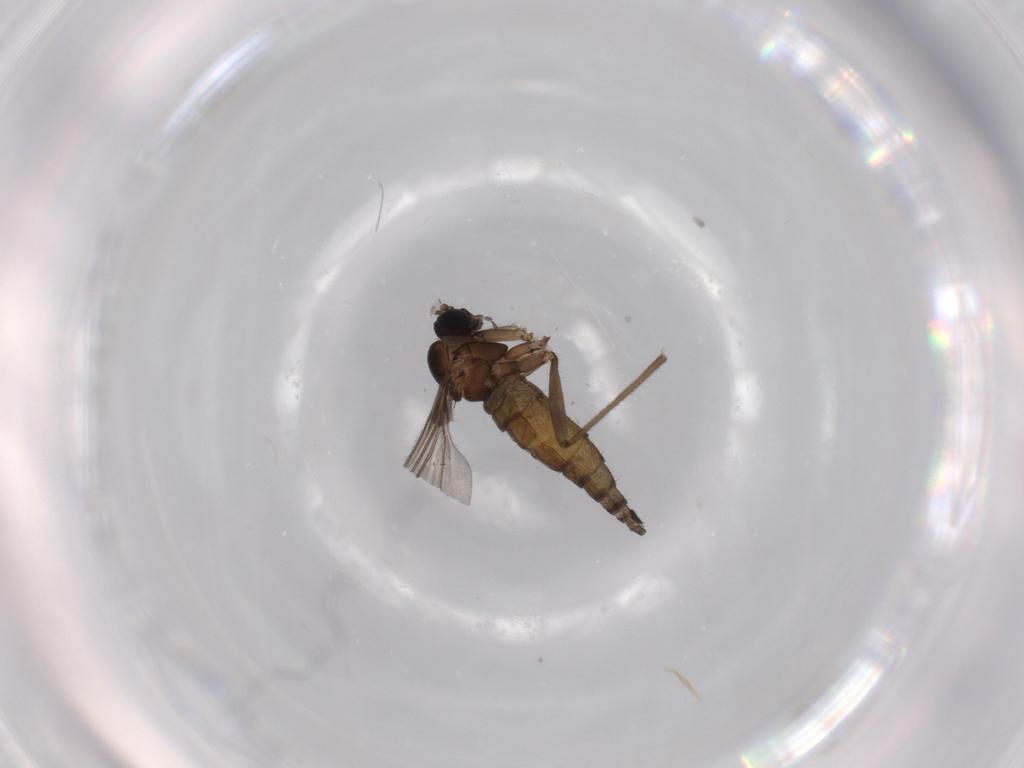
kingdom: Animalia
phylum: Arthropoda
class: Insecta
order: Diptera
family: Sciaridae
